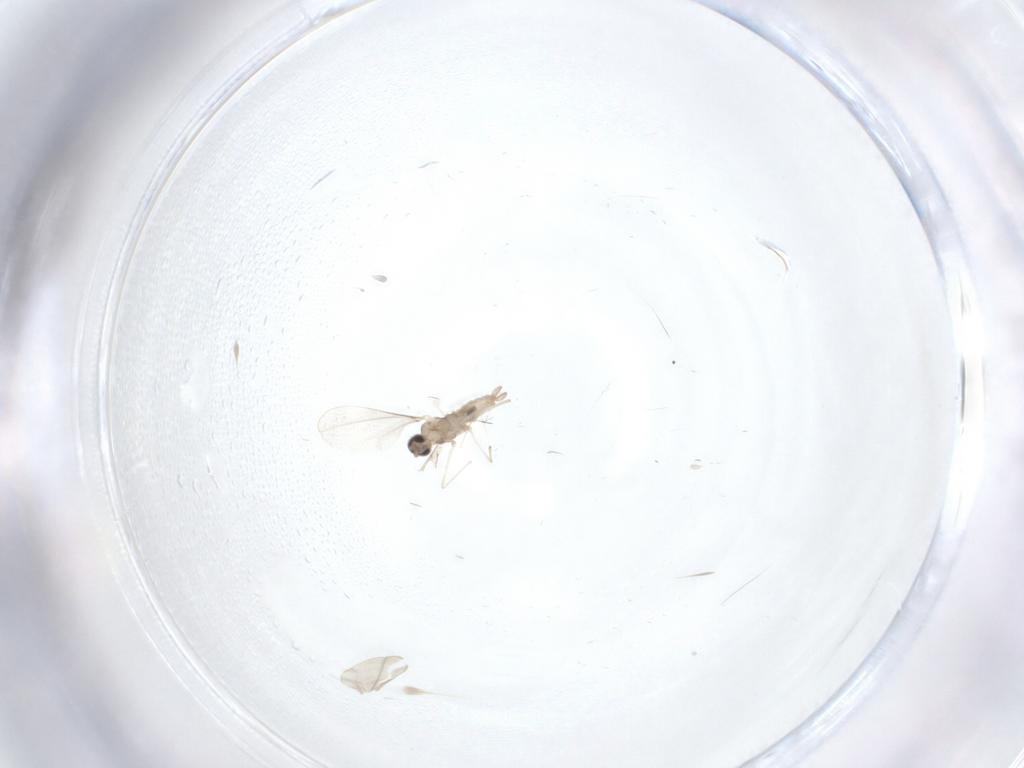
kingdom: Animalia
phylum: Arthropoda
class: Insecta
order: Diptera
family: Cecidomyiidae
